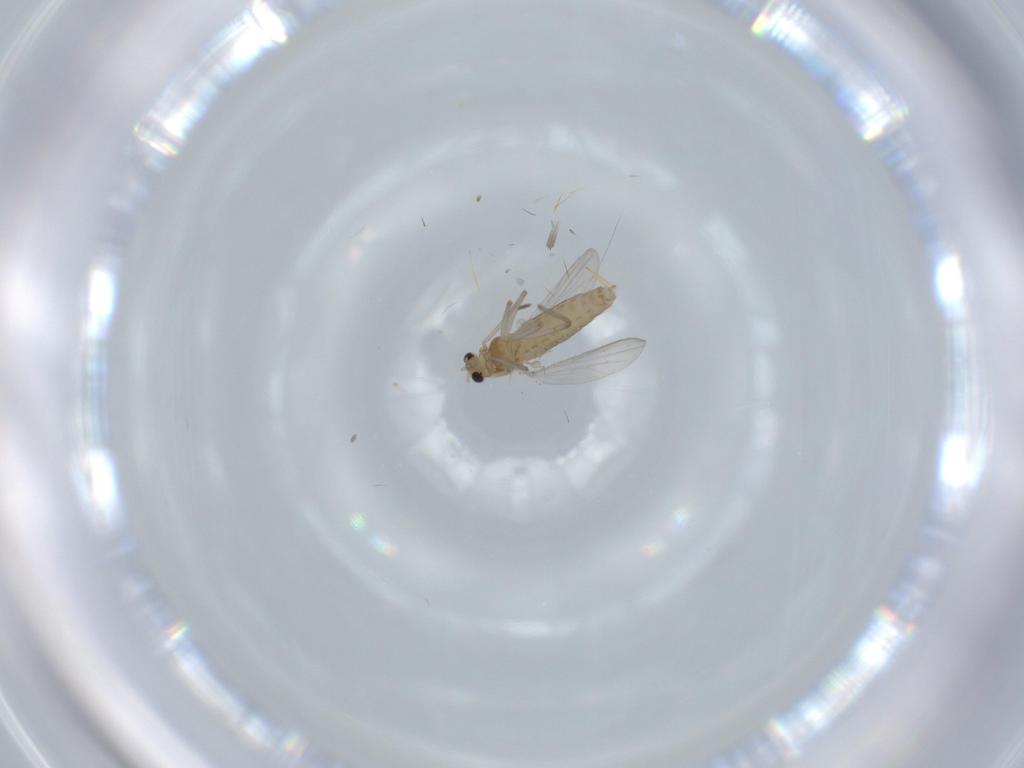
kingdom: Animalia
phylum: Arthropoda
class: Insecta
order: Diptera
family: Chironomidae
